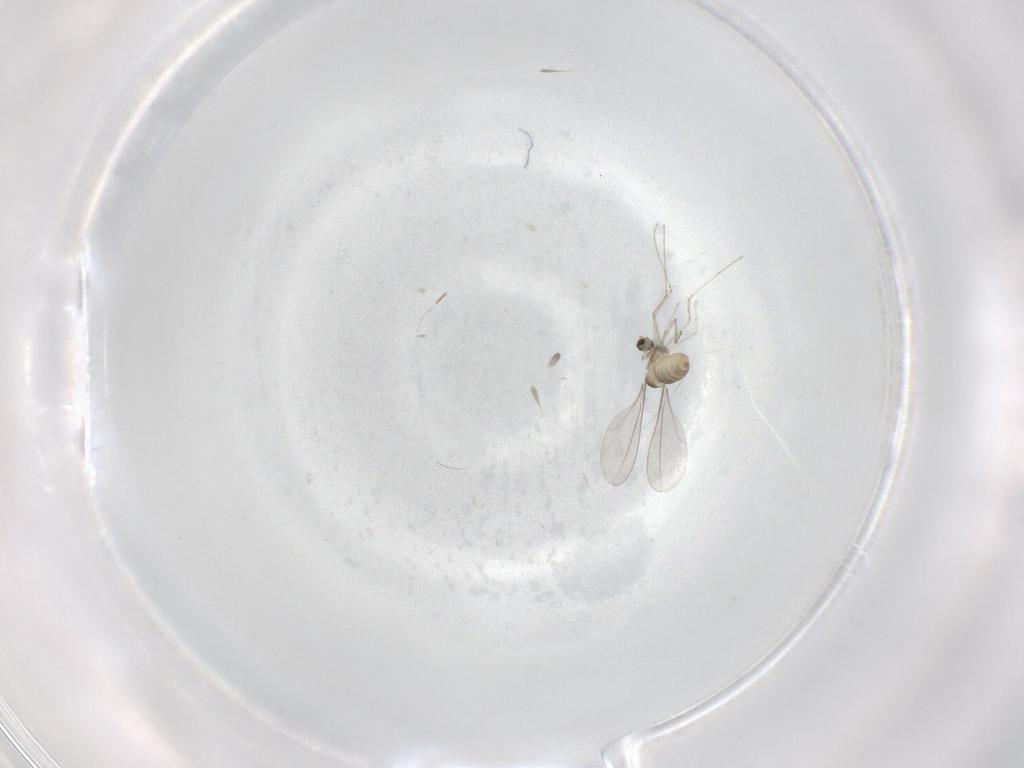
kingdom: Animalia
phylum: Arthropoda
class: Insecta
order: Diptera
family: Cecidomyiidae
